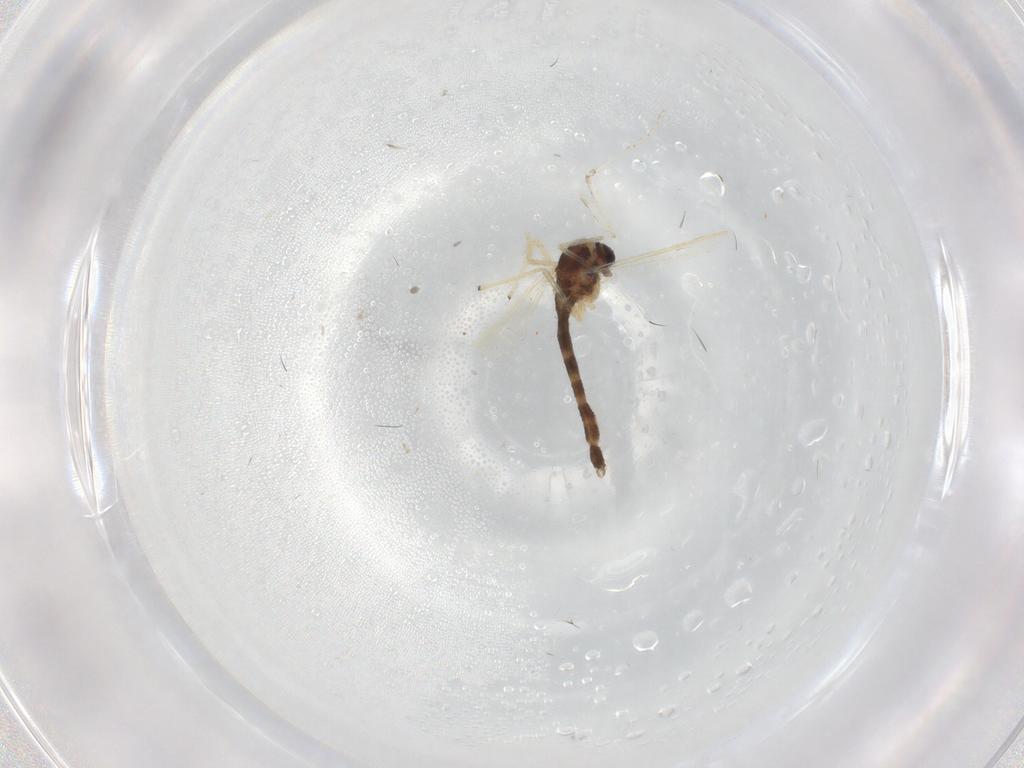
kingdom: Animalia
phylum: Arthropoda
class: Insecta
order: Diptera
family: Chironomidae
